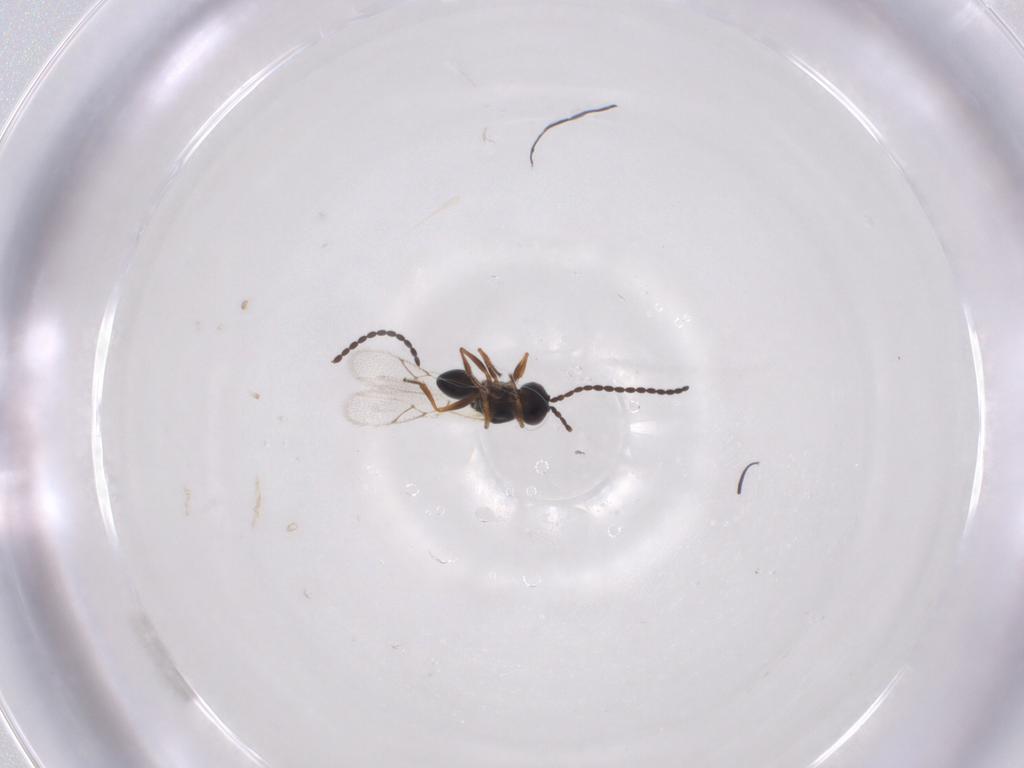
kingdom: Animalia
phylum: Arthropoda
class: Insecta
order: Hymenoptera
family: Figitidae
